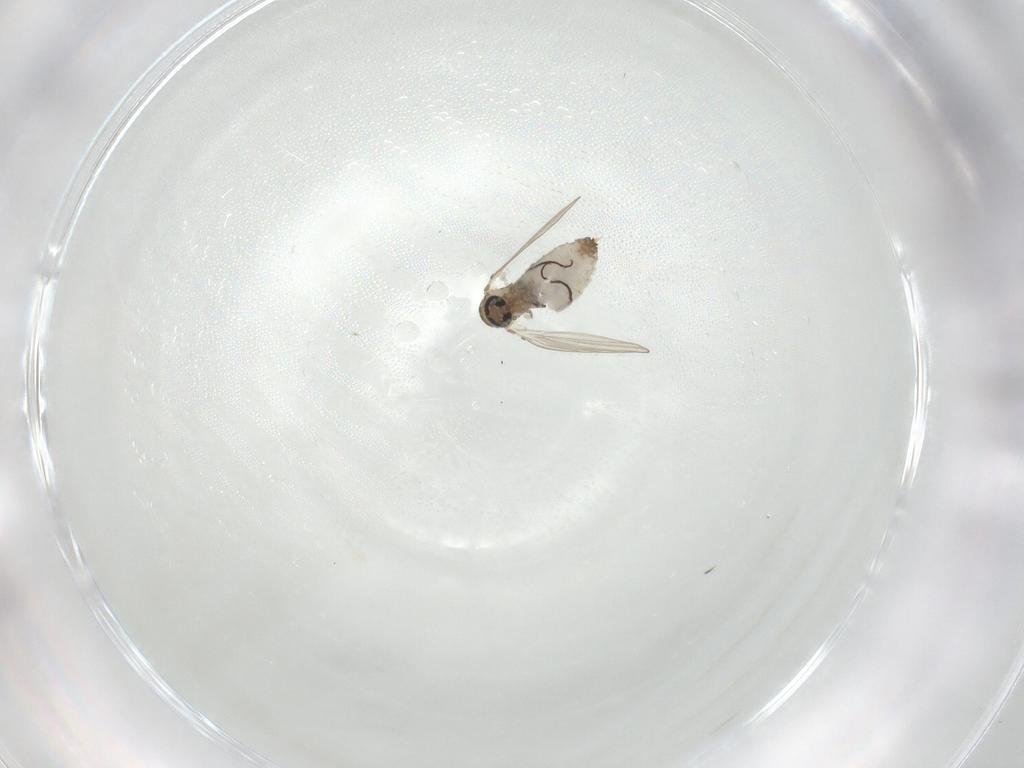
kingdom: Animalia
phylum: Arthropoda
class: Insecta
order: Diptera
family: Psychodidae
